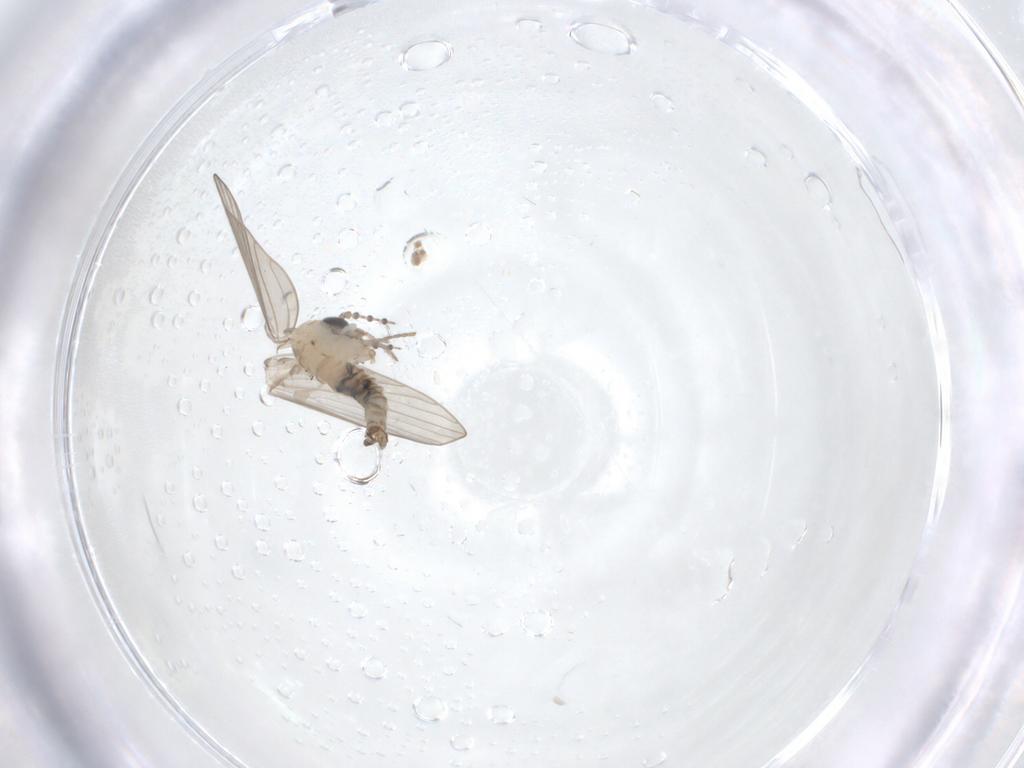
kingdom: Animalia
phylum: Arthropoda
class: Insecta
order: Diptera
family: Psychodidae
